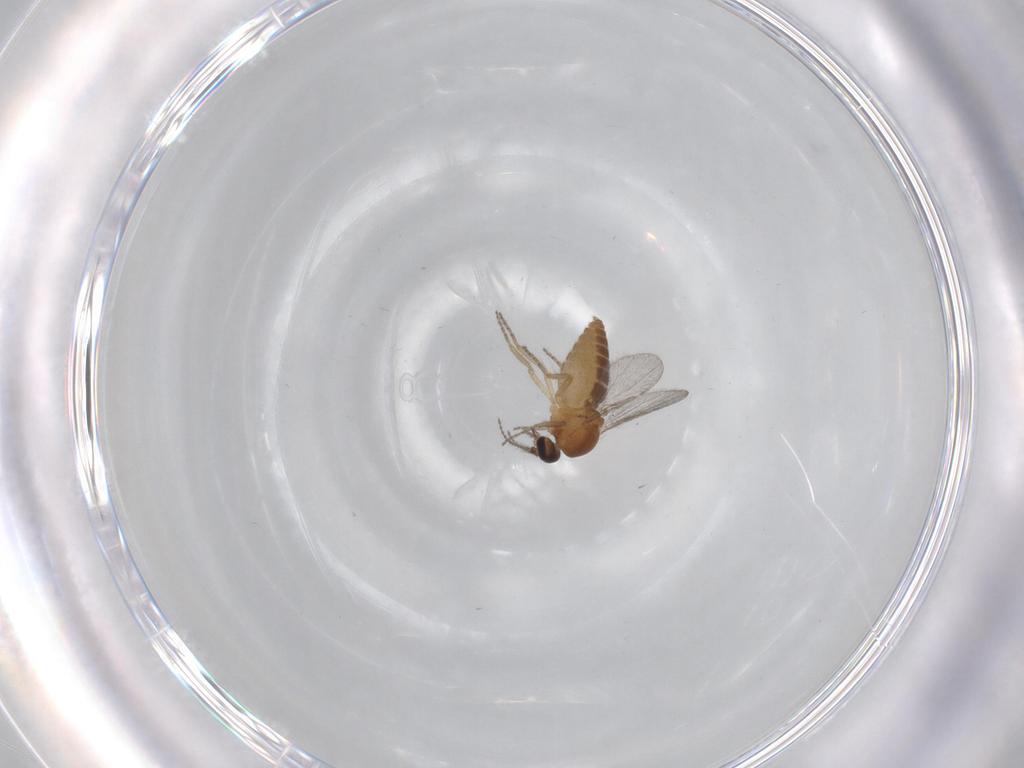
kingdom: Animalia
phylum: Arthropoda
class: Insecta
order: Diptera
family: Ceratopogonidae
